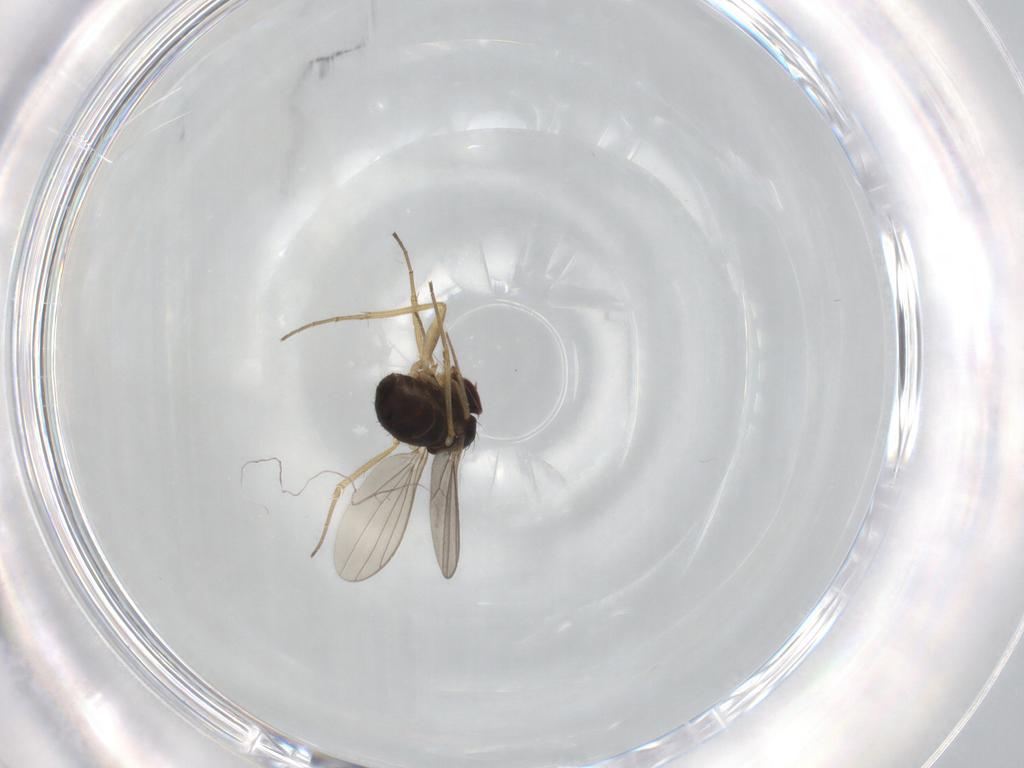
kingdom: Animalia
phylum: Arthropoda
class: Insecta
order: Diptera
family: Dolichopodidae
